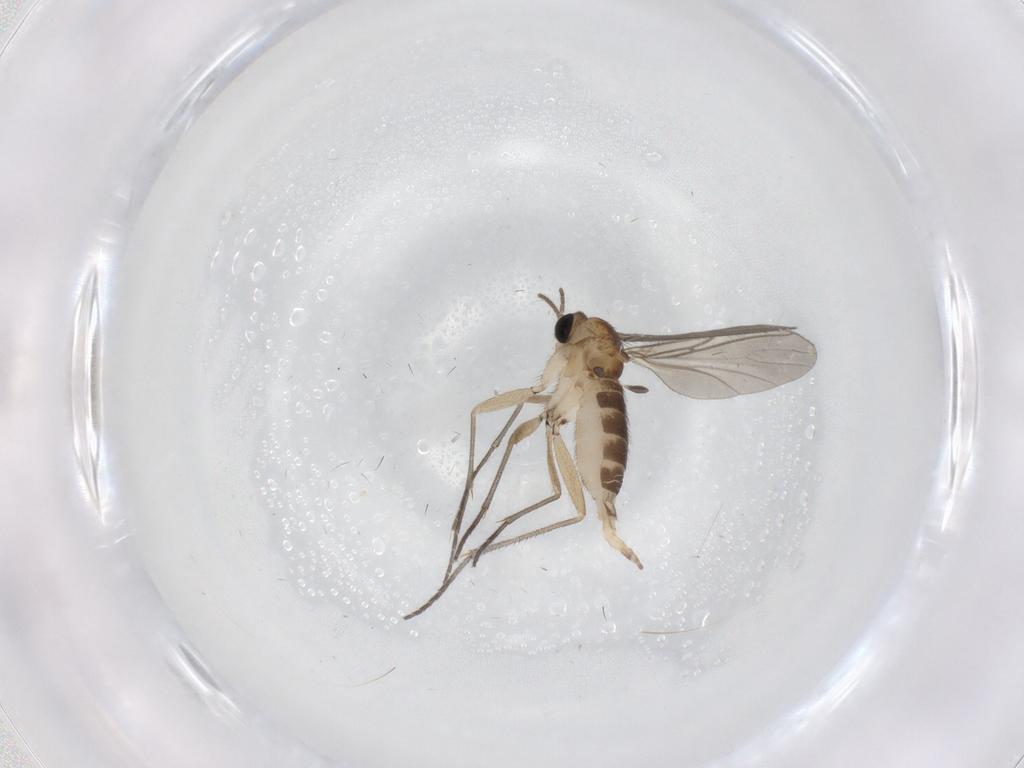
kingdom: Animalia
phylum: Arthropoda
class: Insecta
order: Diptera
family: Sciaridae
